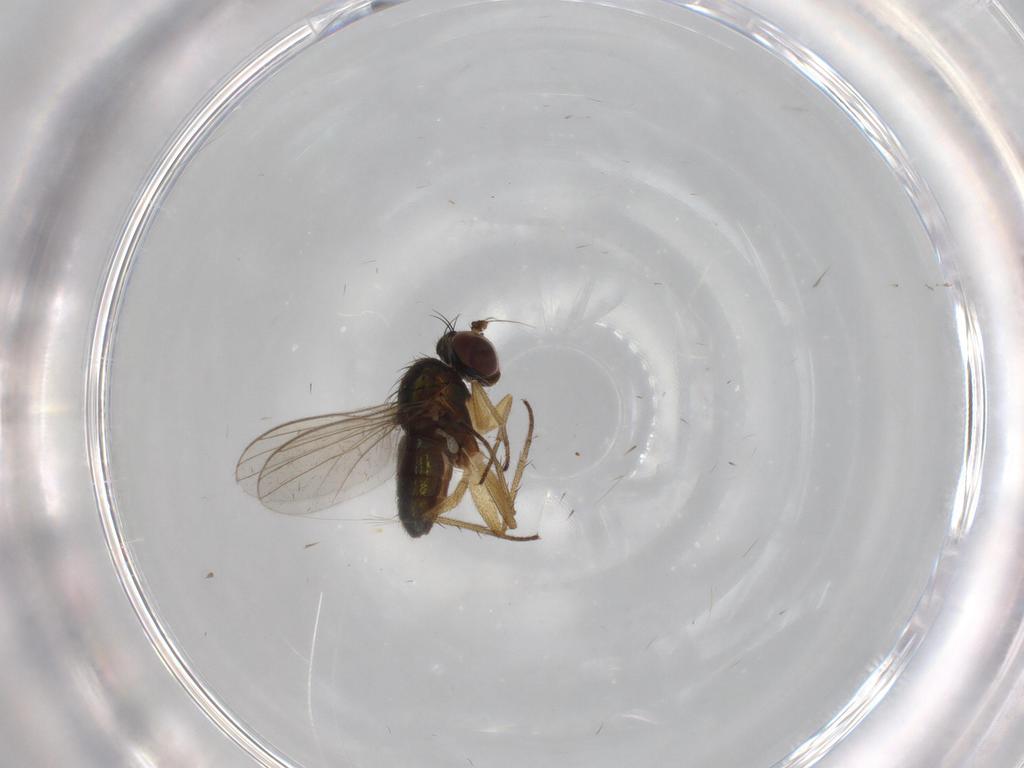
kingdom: Animalia
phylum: Arthropoda
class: Insecta
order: Diptera
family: Dolichopodidae
